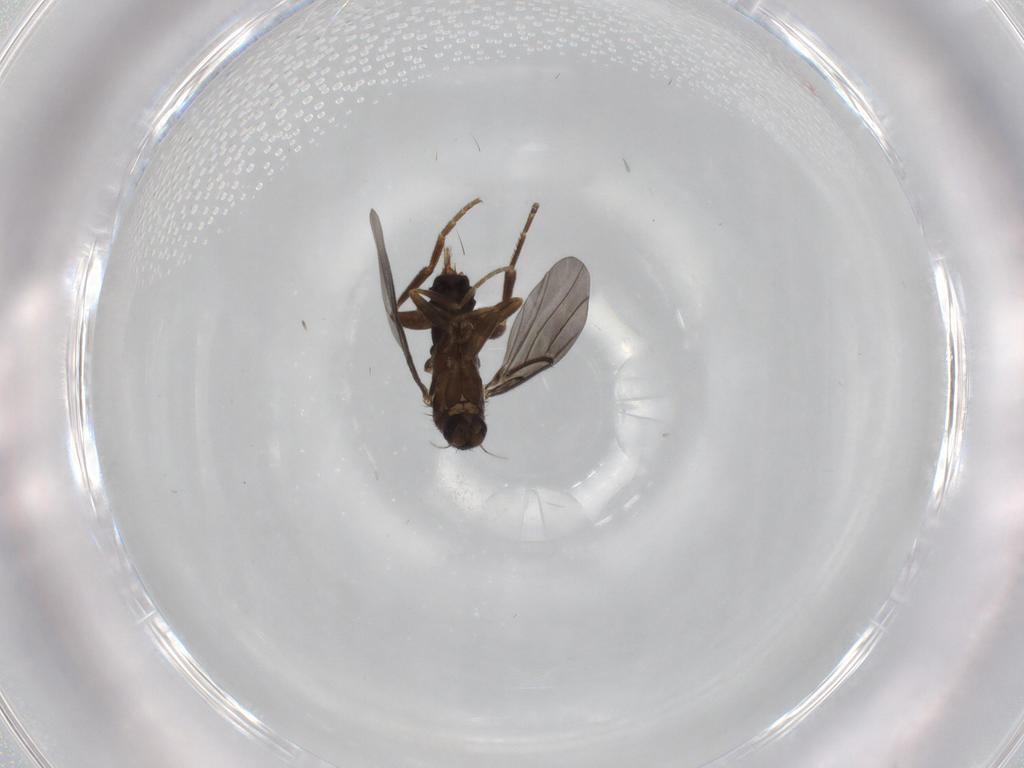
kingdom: Animalia
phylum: Arthropoda
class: Insecta
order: Diptera
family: Phoridae
